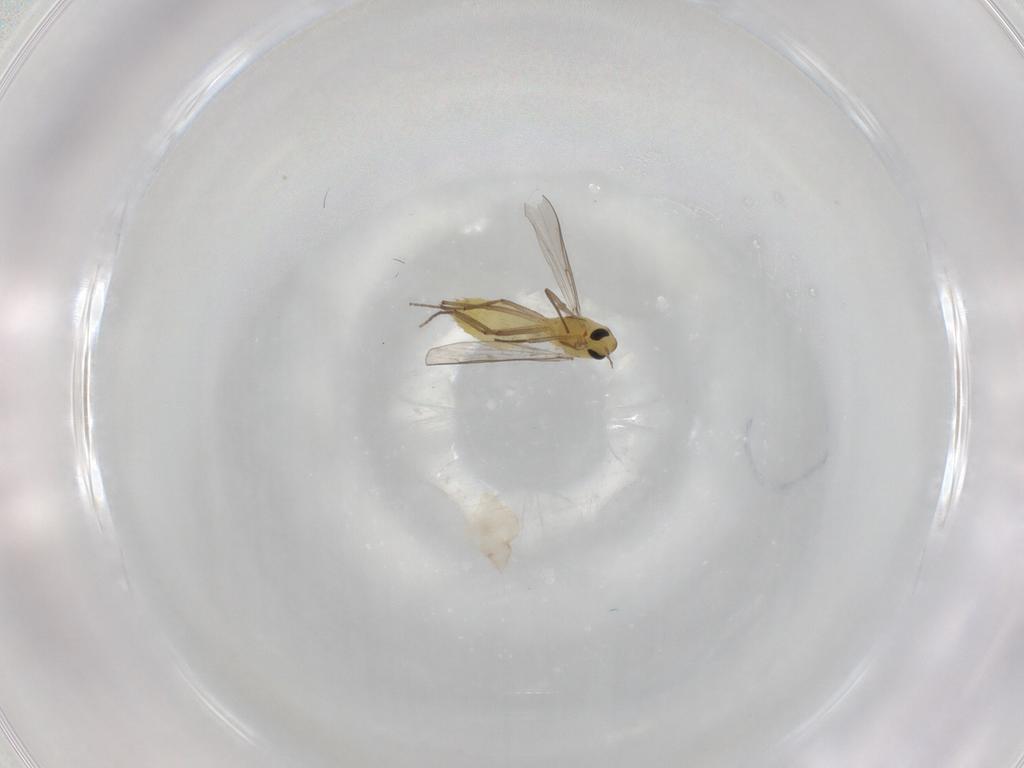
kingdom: Animalia
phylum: Arthropoda
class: Insecta
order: Diptera
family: Chironomidae
